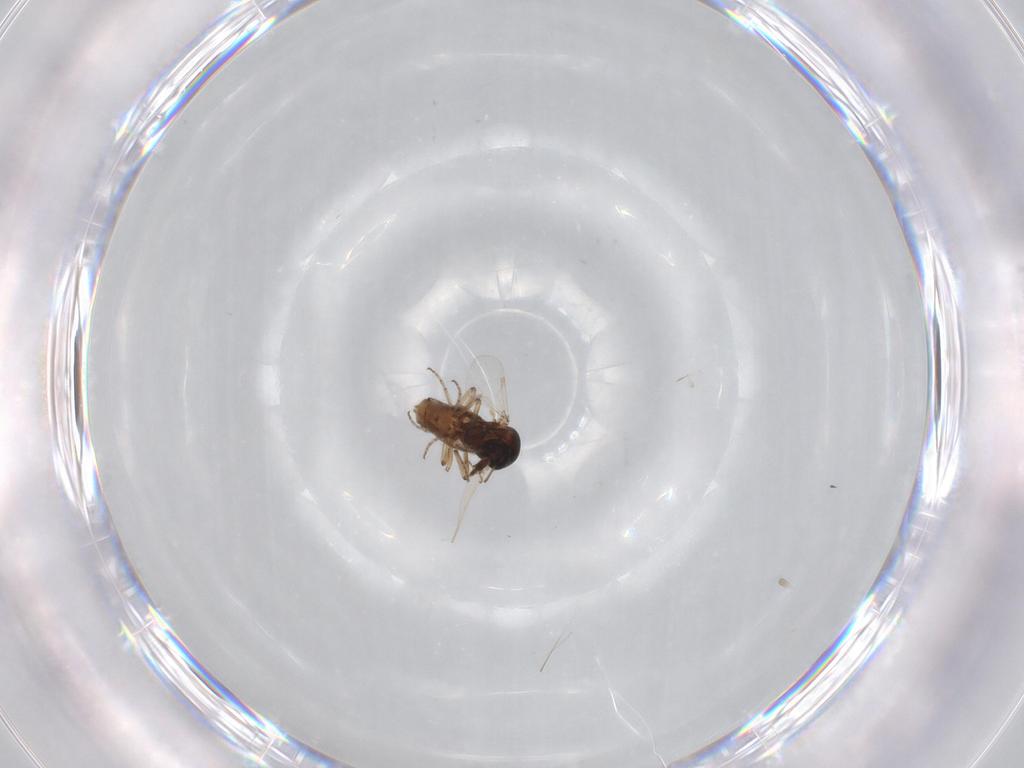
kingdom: Animalia
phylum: Arthropoda
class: Insecta
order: Diptera
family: Ceratopogonidae
